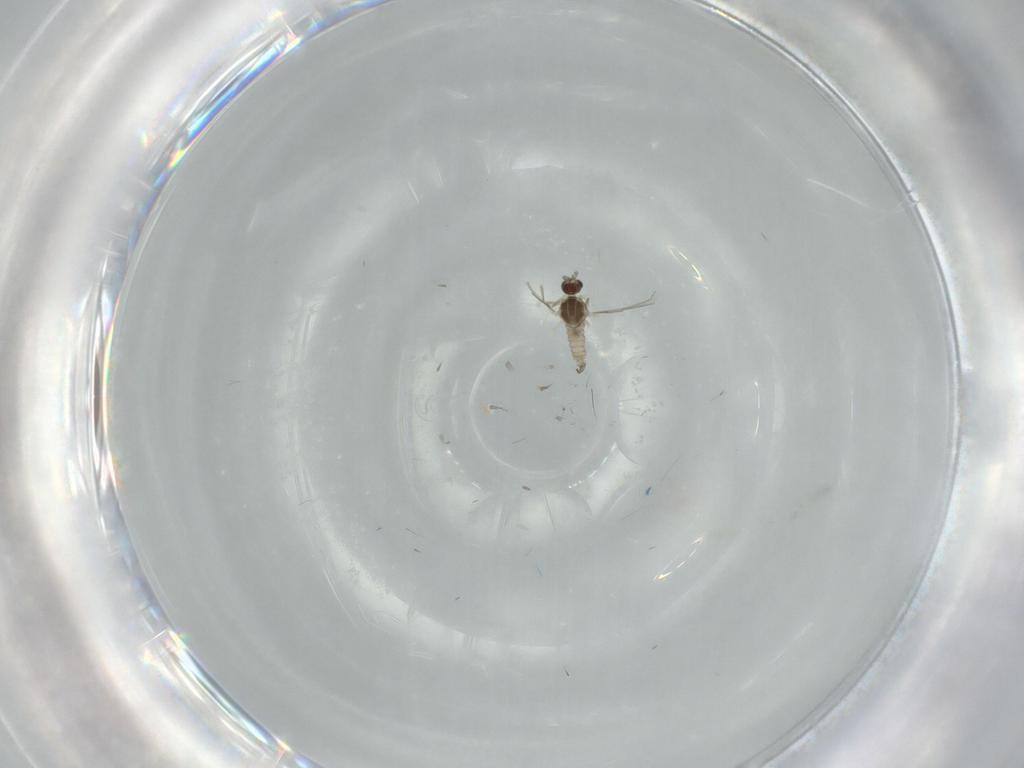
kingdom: Animalia
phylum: Arthropoda
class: Insecta
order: Diptera
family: Cecidomyiidae
